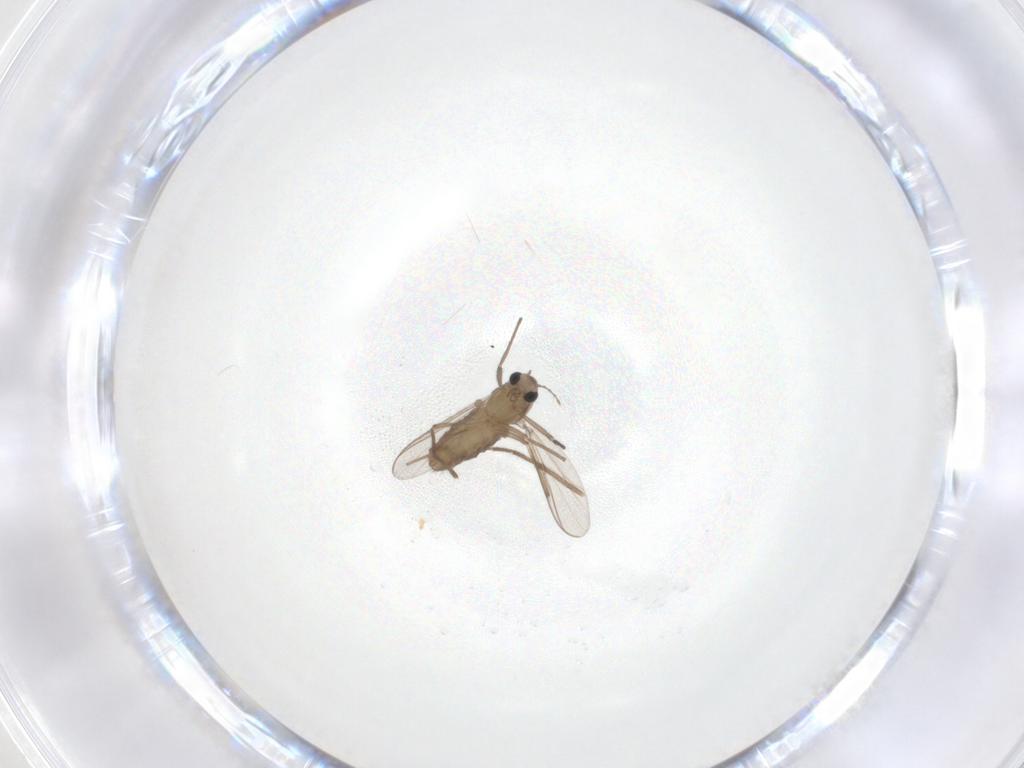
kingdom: Animalia
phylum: Arthropoda
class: Insecta
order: Diptera
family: Chironomidae
